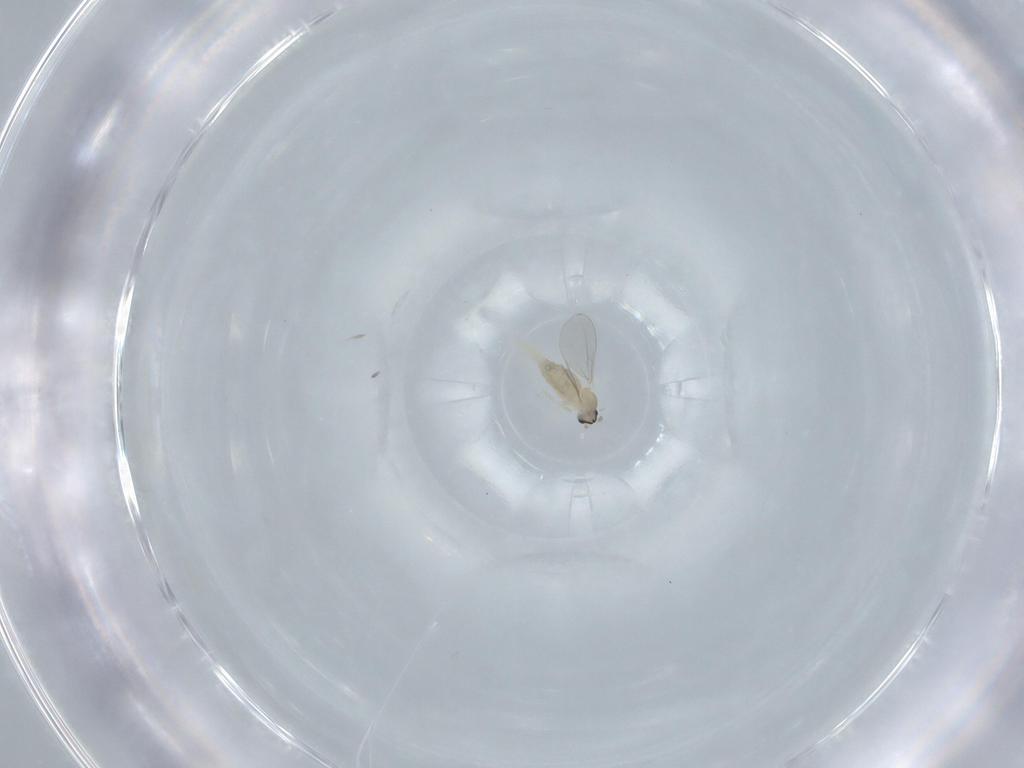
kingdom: Animalia
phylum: Arthropoda
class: Insecta
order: Diptera
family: Cecidomyiidae
